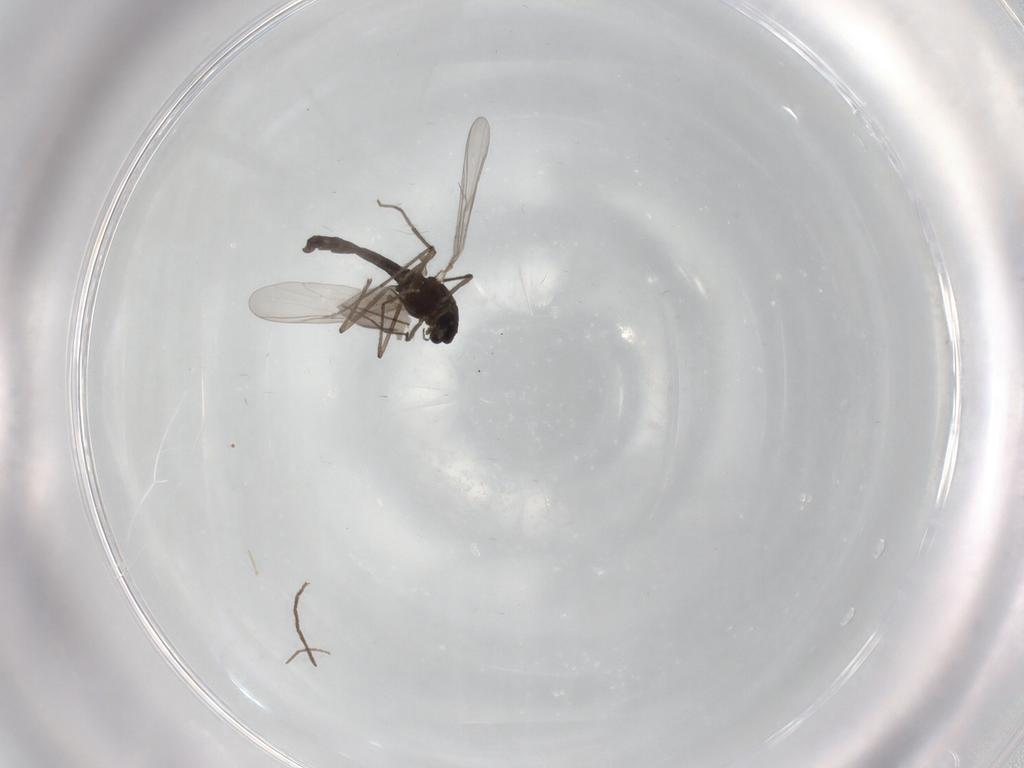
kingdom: Animalia
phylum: Arthropoda
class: Insecta
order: Diptera
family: Chironomidae
